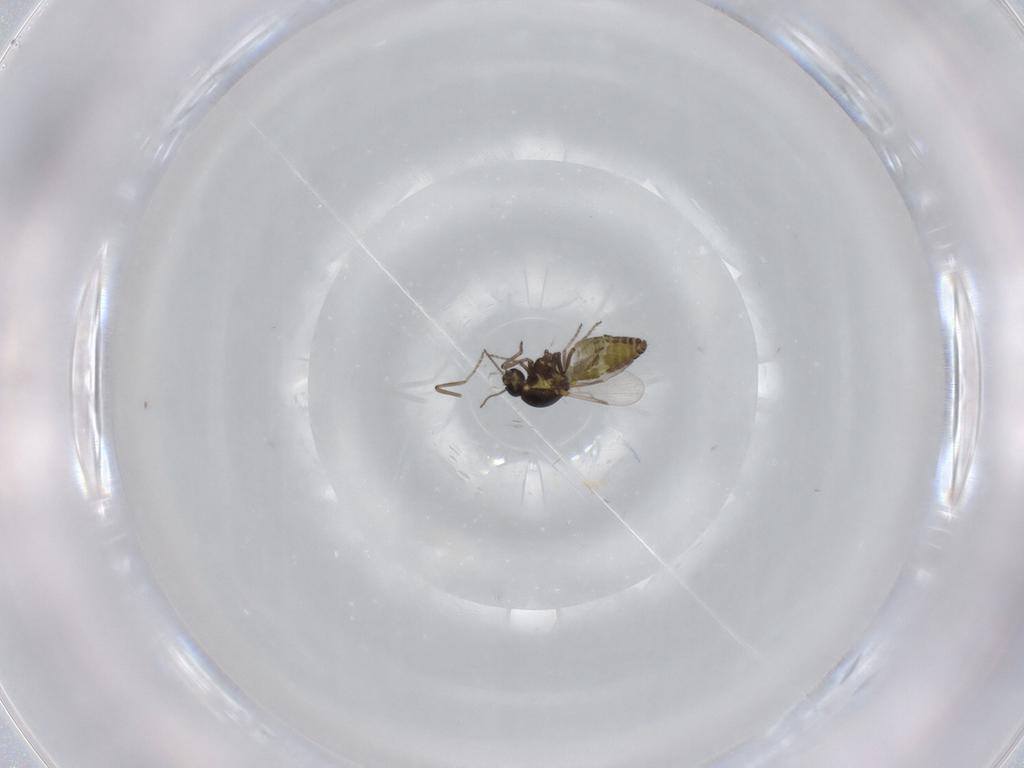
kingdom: Animalia
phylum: Arthropoda
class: Insecta
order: Diptera
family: Ceratopogonidae
